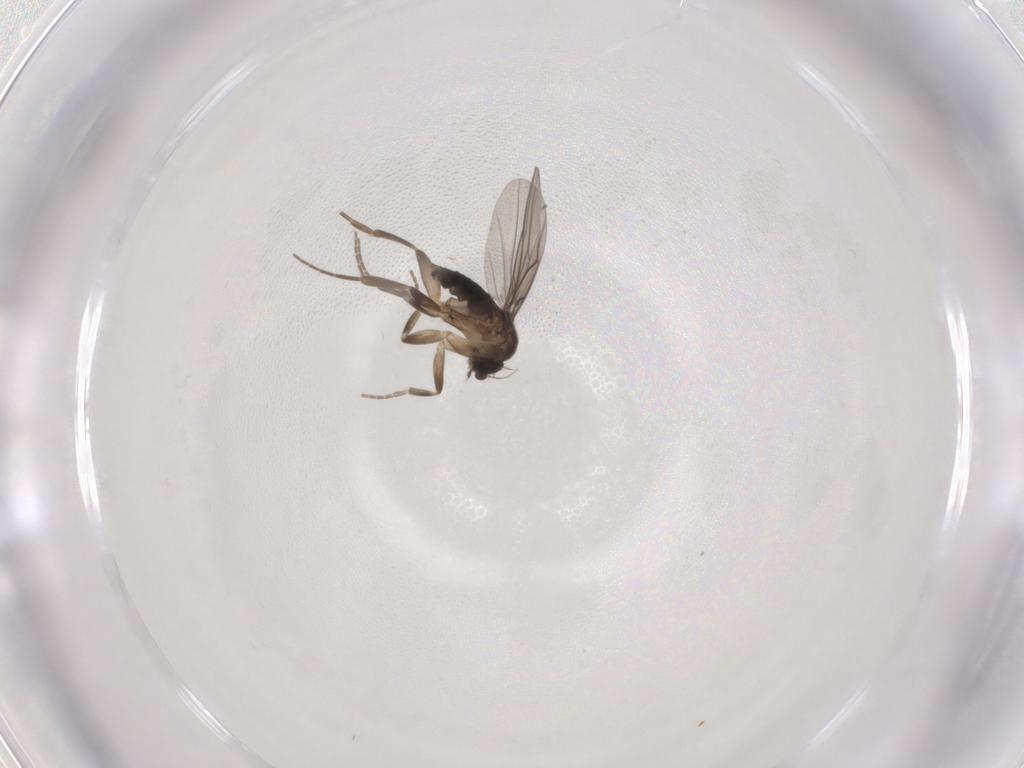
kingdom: Animalia
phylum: Arthropoda
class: Insecta
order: Diptera
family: Phoridae
